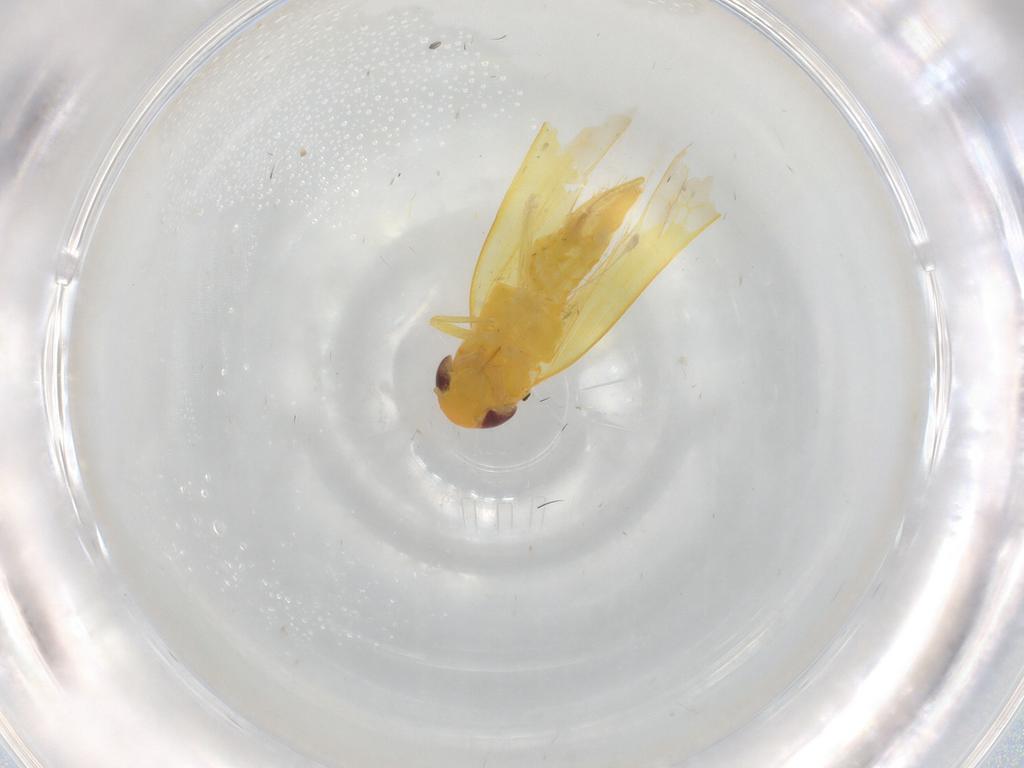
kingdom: Animalia
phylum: Arthropoda
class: Insecta
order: Hemiptera
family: Cicadellidae
